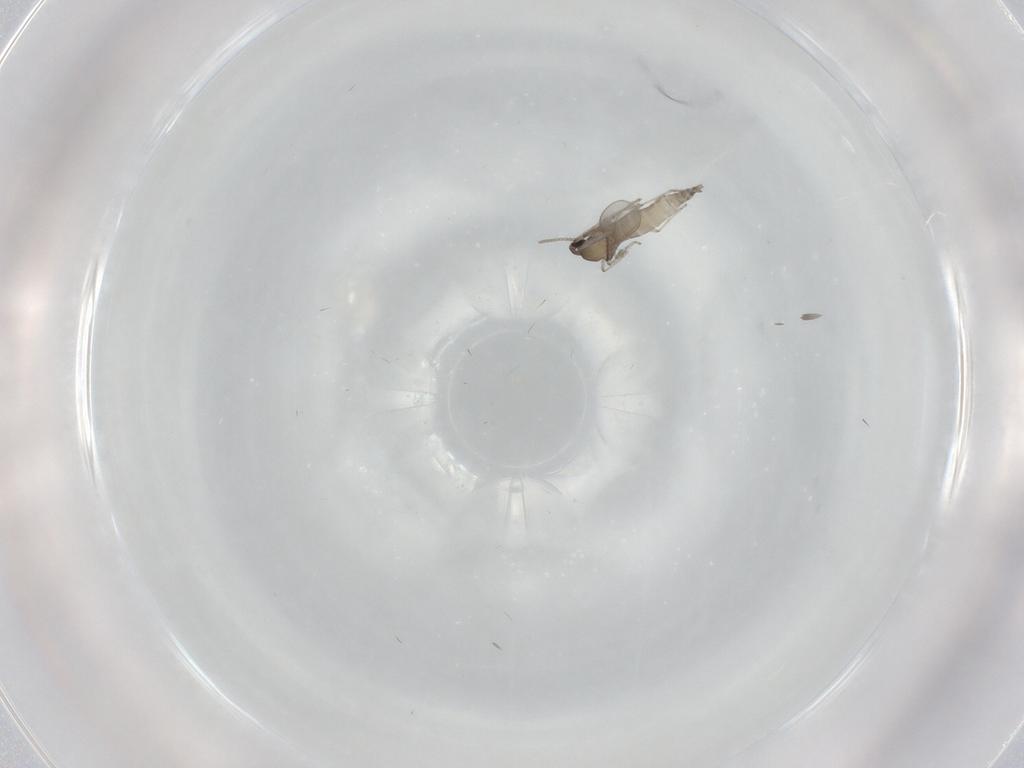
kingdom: Animalia
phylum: Arthropoda
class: Insecta
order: Diptera
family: Cecidomyiidae
